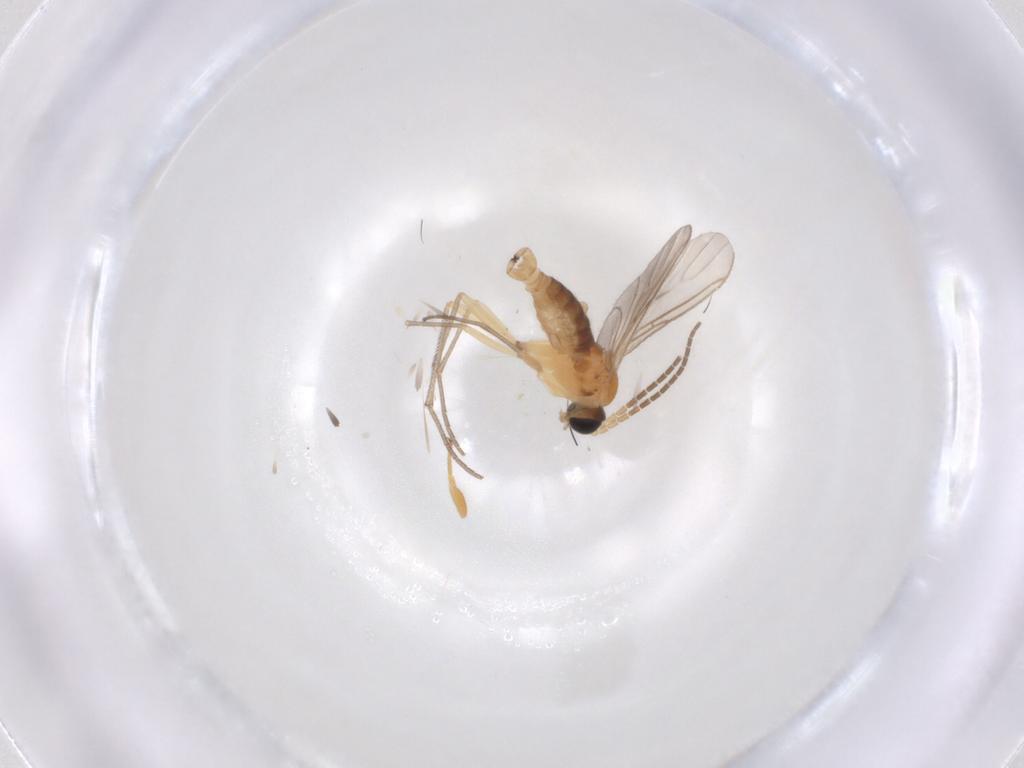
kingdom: Animalia
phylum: Arthropoda
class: Insecta
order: Diptera
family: Sciaridae
